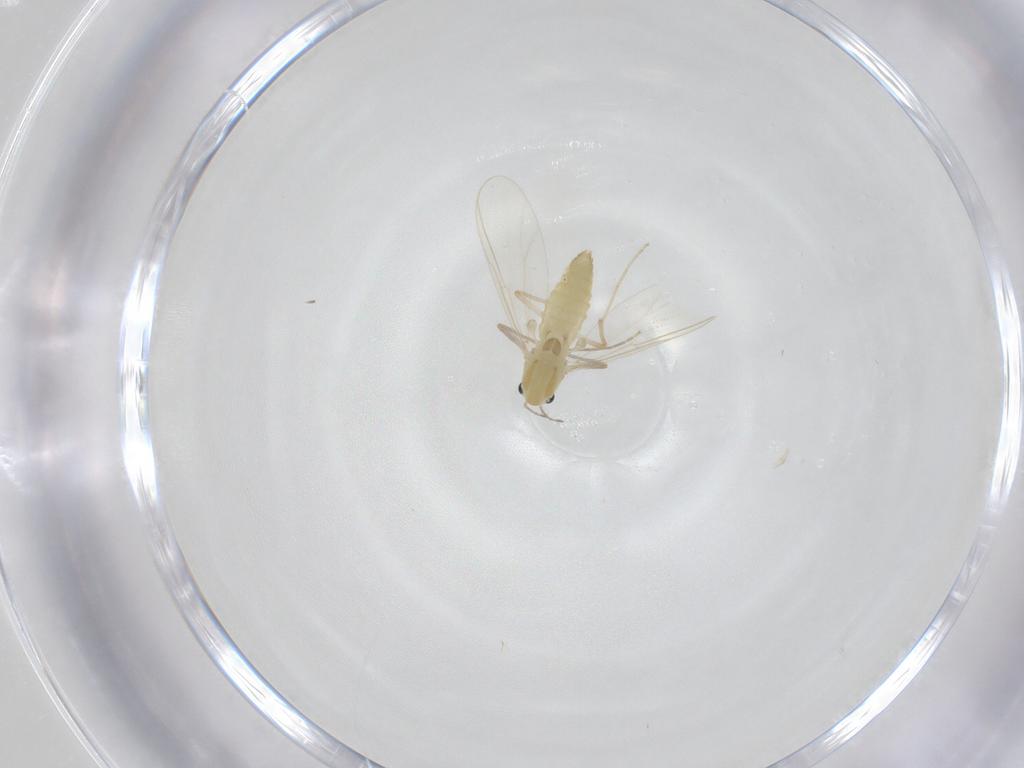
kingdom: Animalia
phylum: Arthropoda
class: Insecta
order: Diptera
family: Chironomidae
